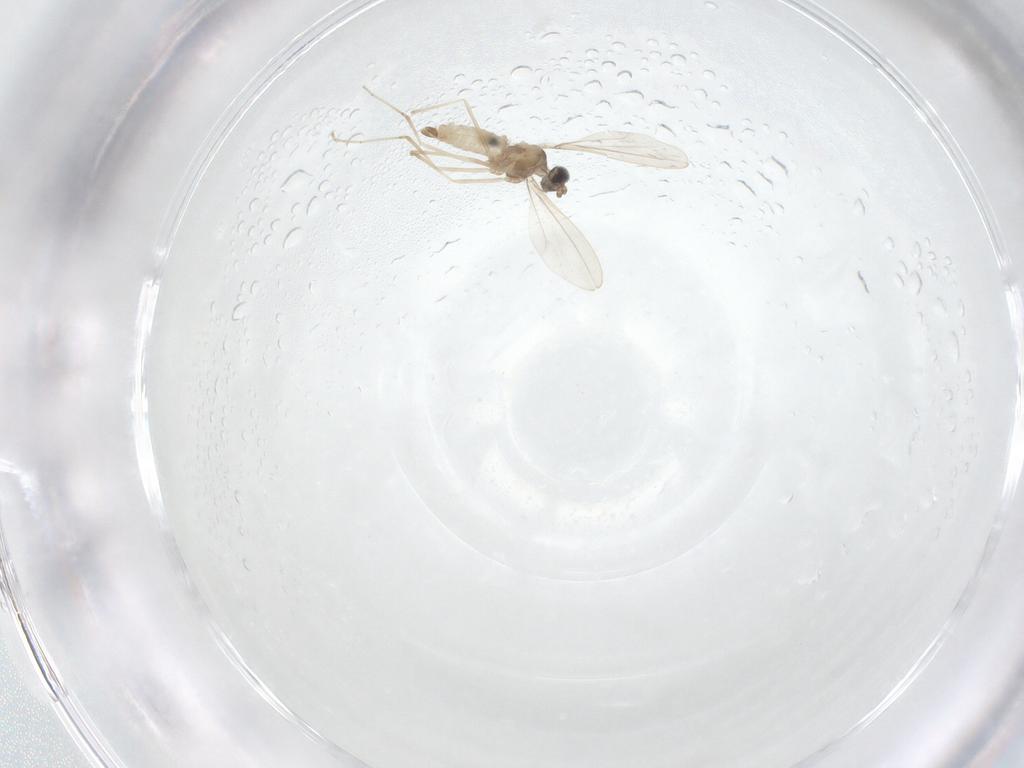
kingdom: Animalia
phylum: Arthropoda
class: Insecta
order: Diptera
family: Cecidomyiidae
